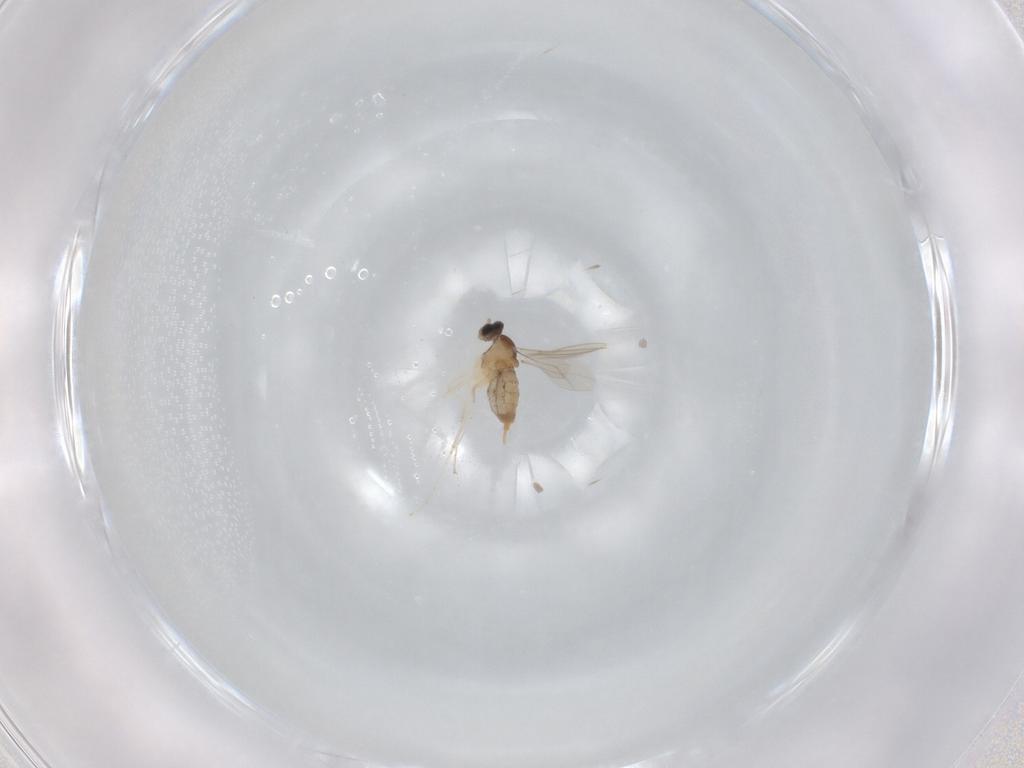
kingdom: Animalia
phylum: Arthropoda
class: Insecta
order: Diptera
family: Cecidomyiidae
